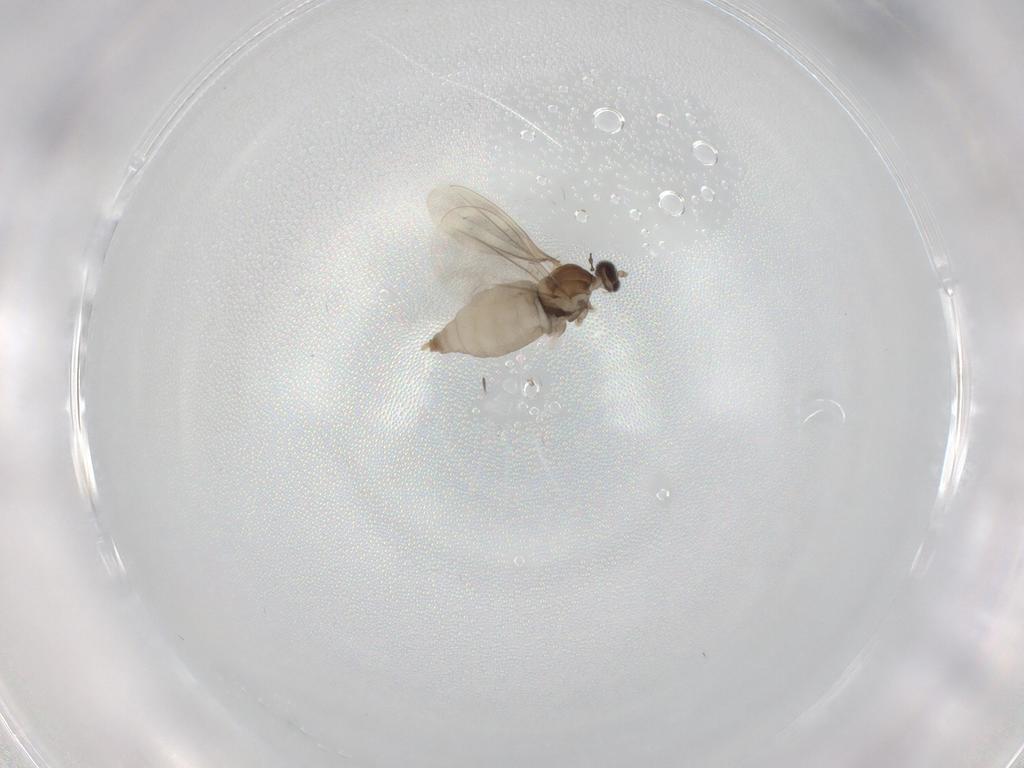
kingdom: Animalia
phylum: Arthropoda
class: Insecta
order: Diptera
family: Cecidomyiidae
